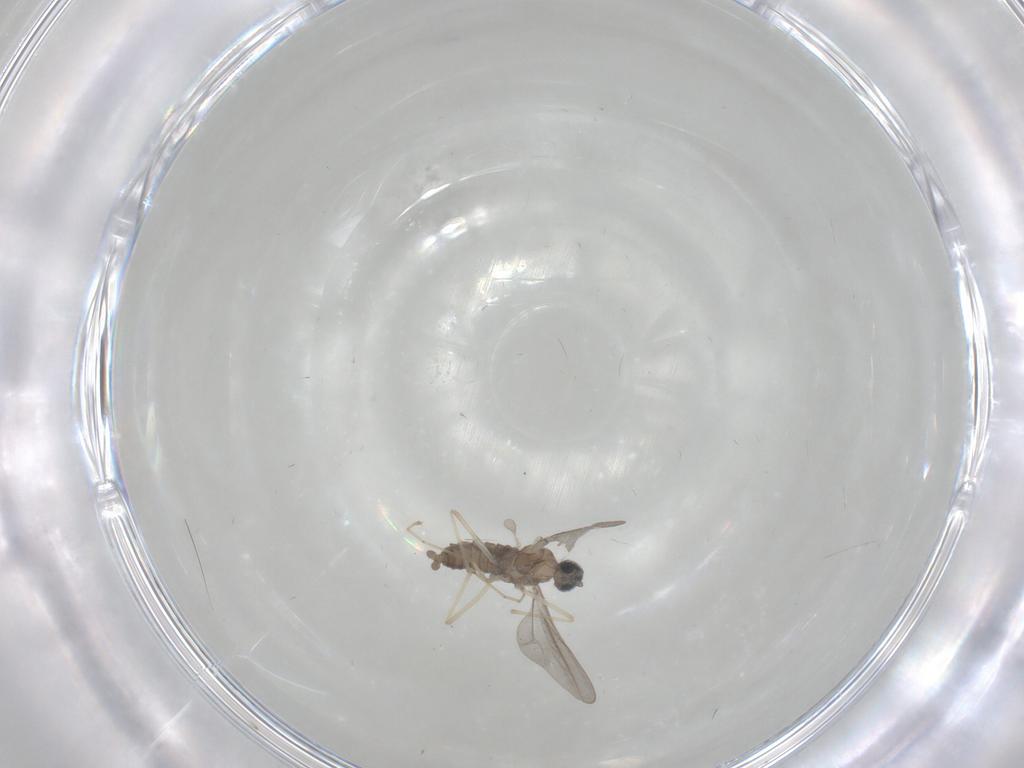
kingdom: Animalia
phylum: Arthropoda
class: Insecta
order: Diptera
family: Cecidomyiidae
